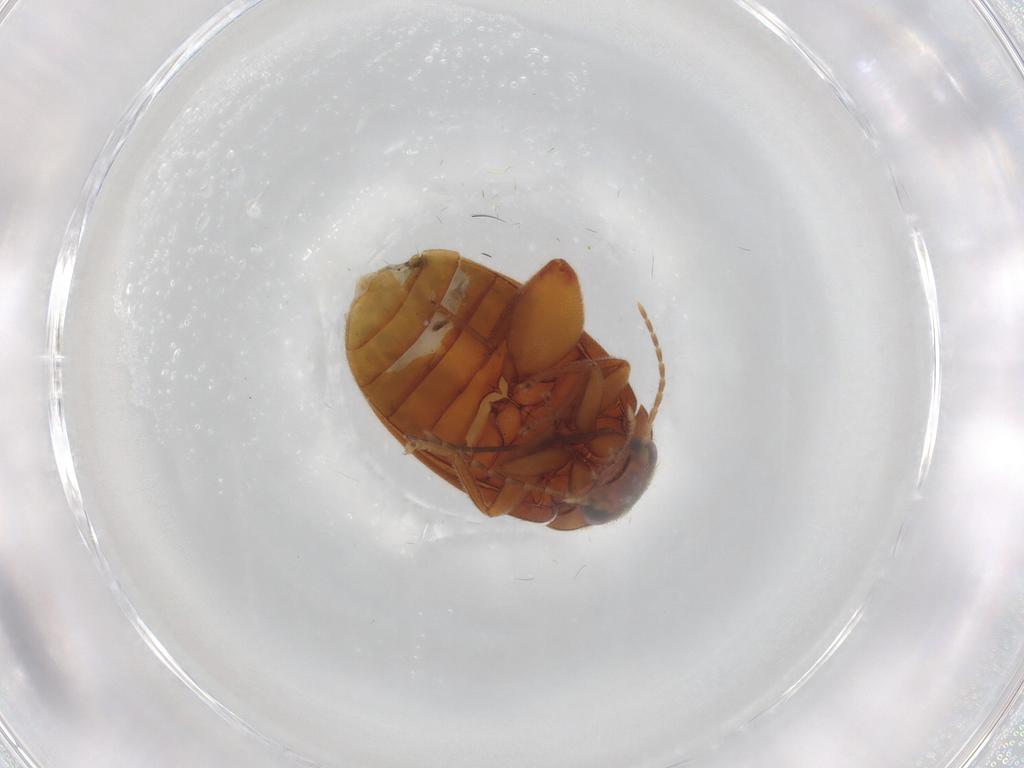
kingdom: Animalia
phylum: Arthropoda
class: Insecta
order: Coleoptera
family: Scirtidae
